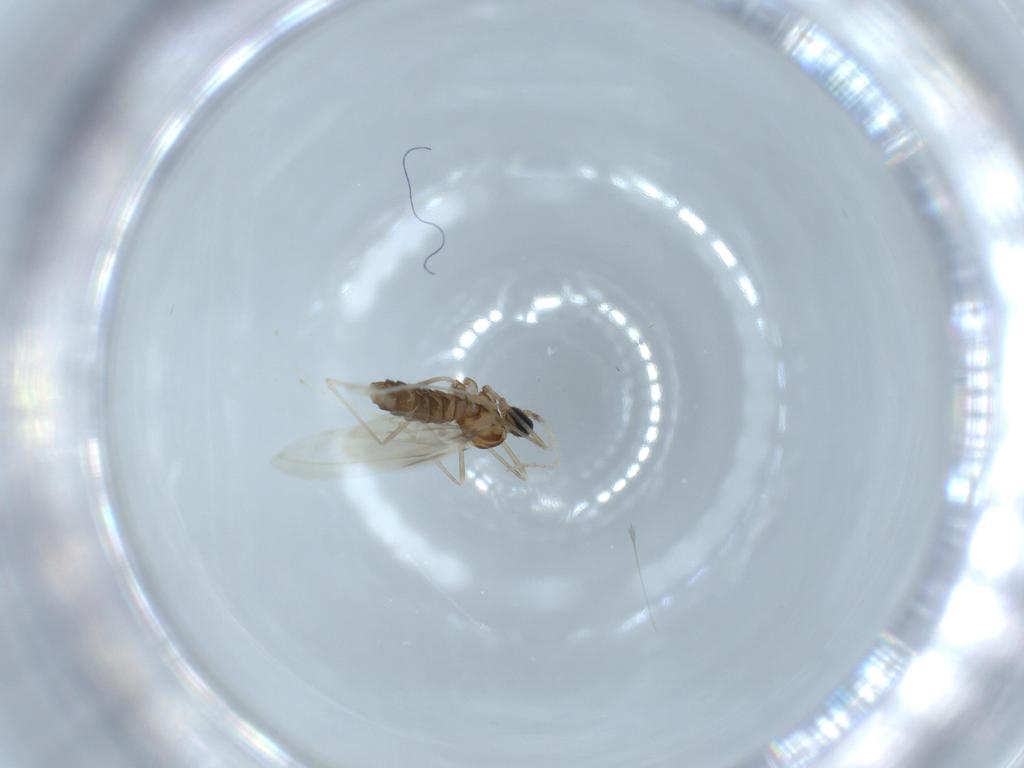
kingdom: Animalia
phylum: Arthropoda
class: Insecta
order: Diptera
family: Cecidomyiidae
